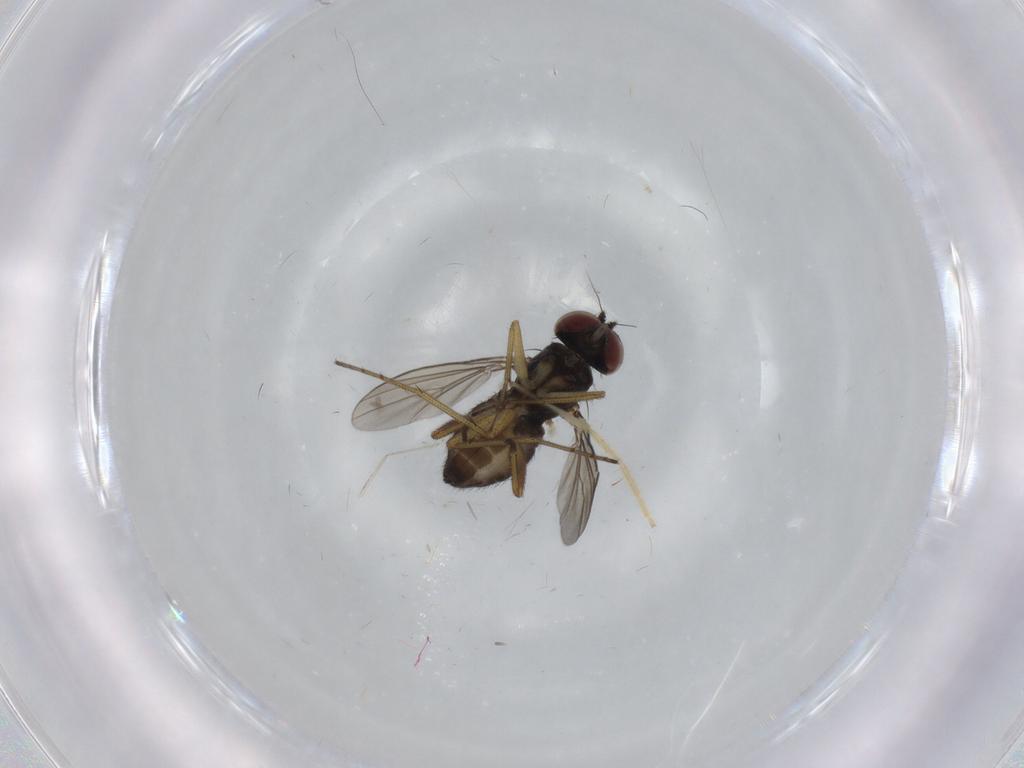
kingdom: Animalia
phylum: Arthropoda
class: Insecta
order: Diptera
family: Dolichopodidae
